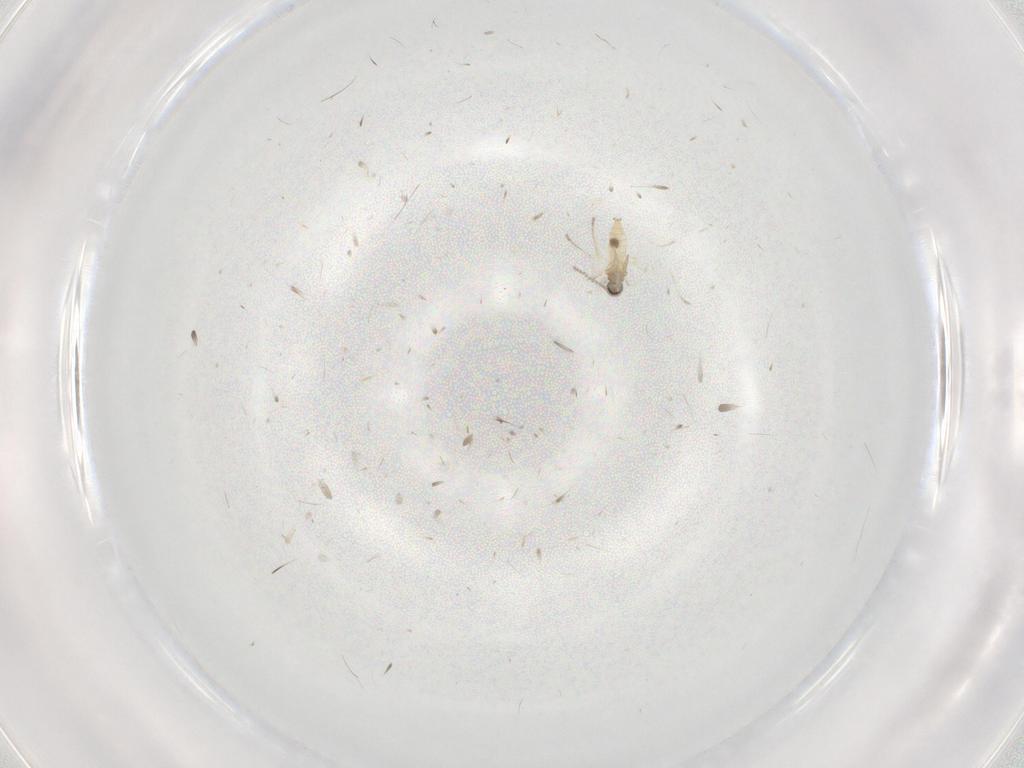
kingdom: Animalia
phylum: Arthropoda
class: Insecta
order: Diptera
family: Cecidomyiidae
